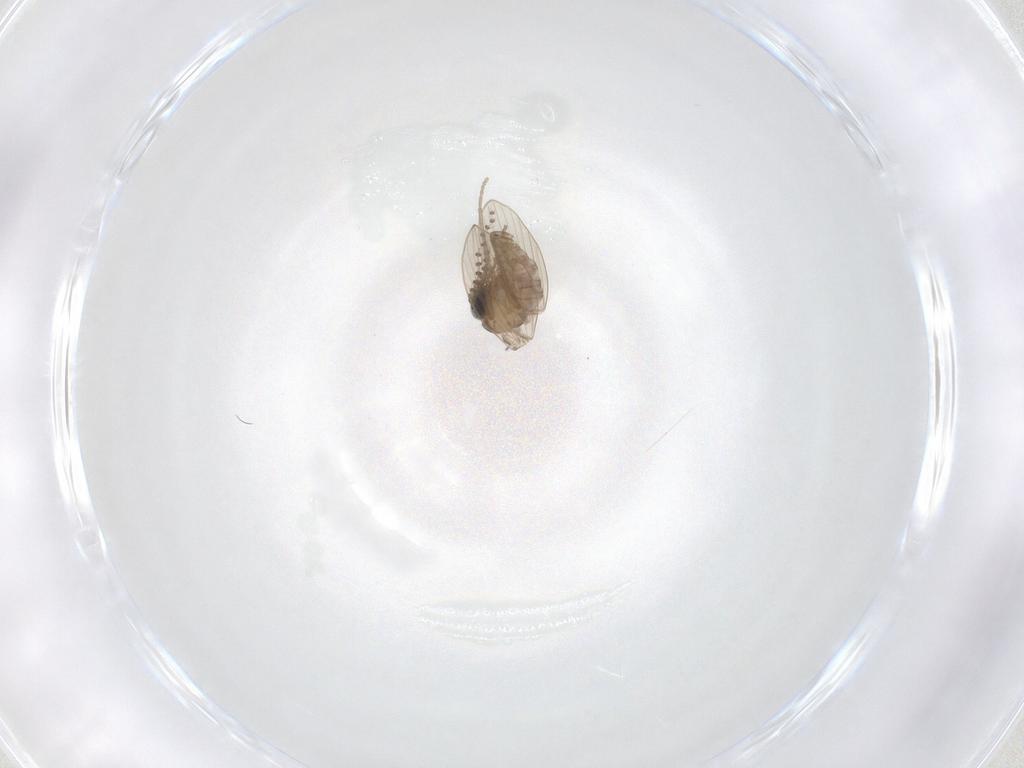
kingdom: Animalia
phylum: Arthropoda
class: Insecta
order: Diptera
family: Psychodidae
